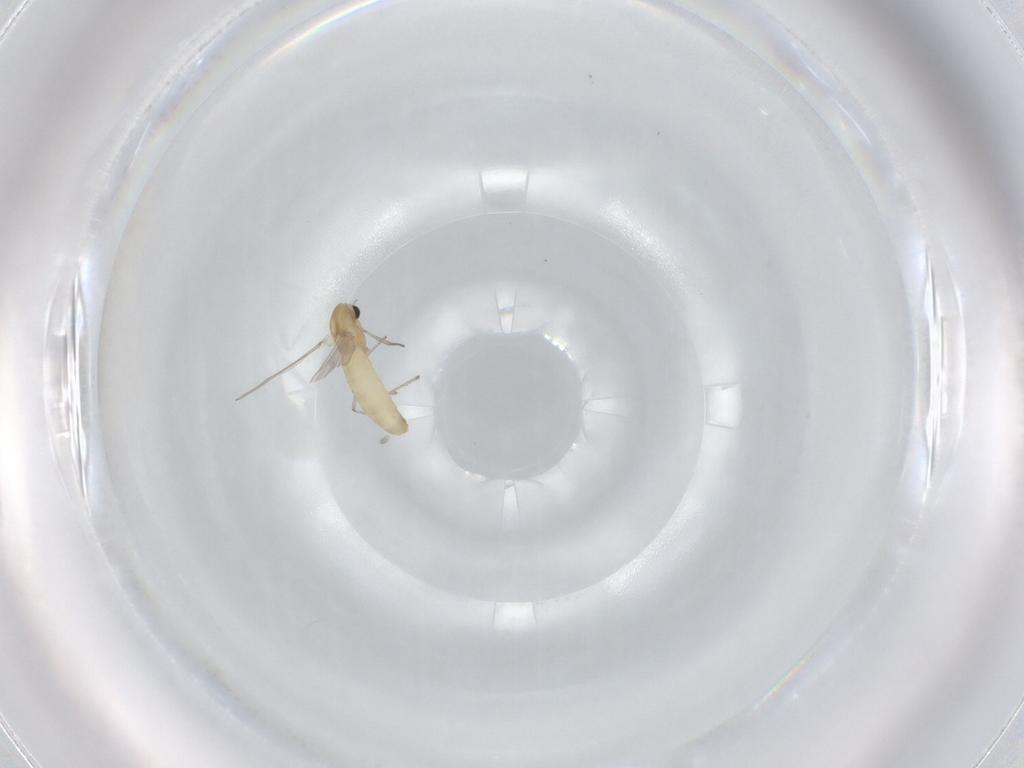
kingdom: Animalia
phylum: Arthropoda
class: Insecta
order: Diptera
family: Chironomidae
